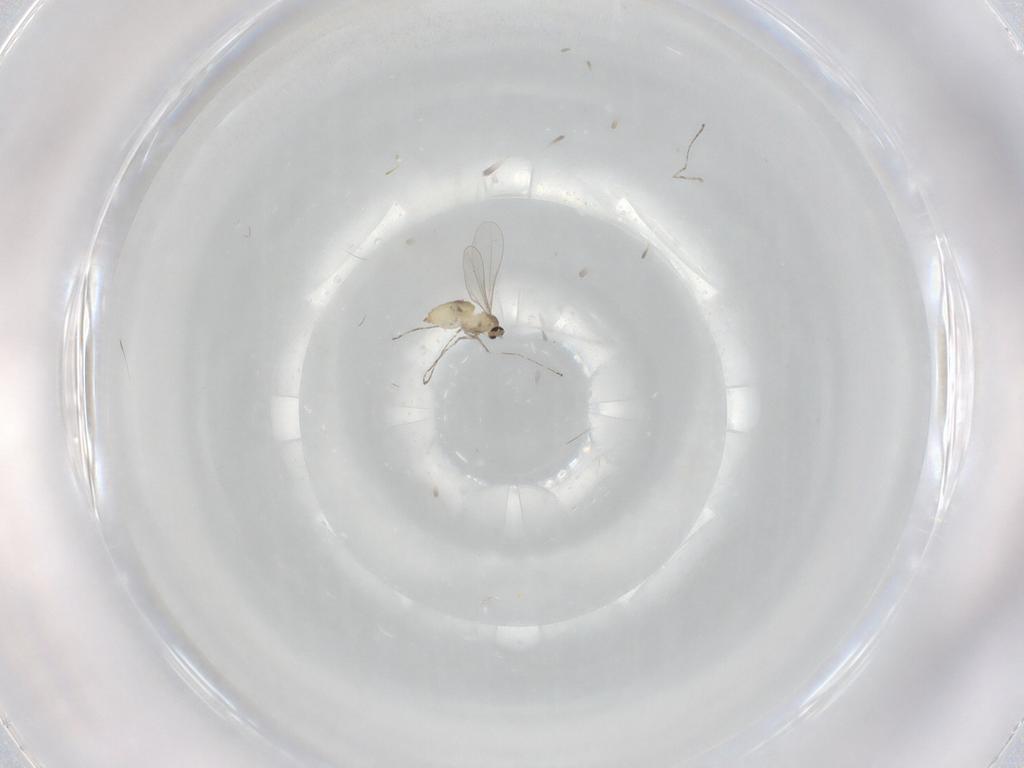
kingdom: Animalia
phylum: Arthropoda
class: Insecta
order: Diptera
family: Cecidomyiidae
